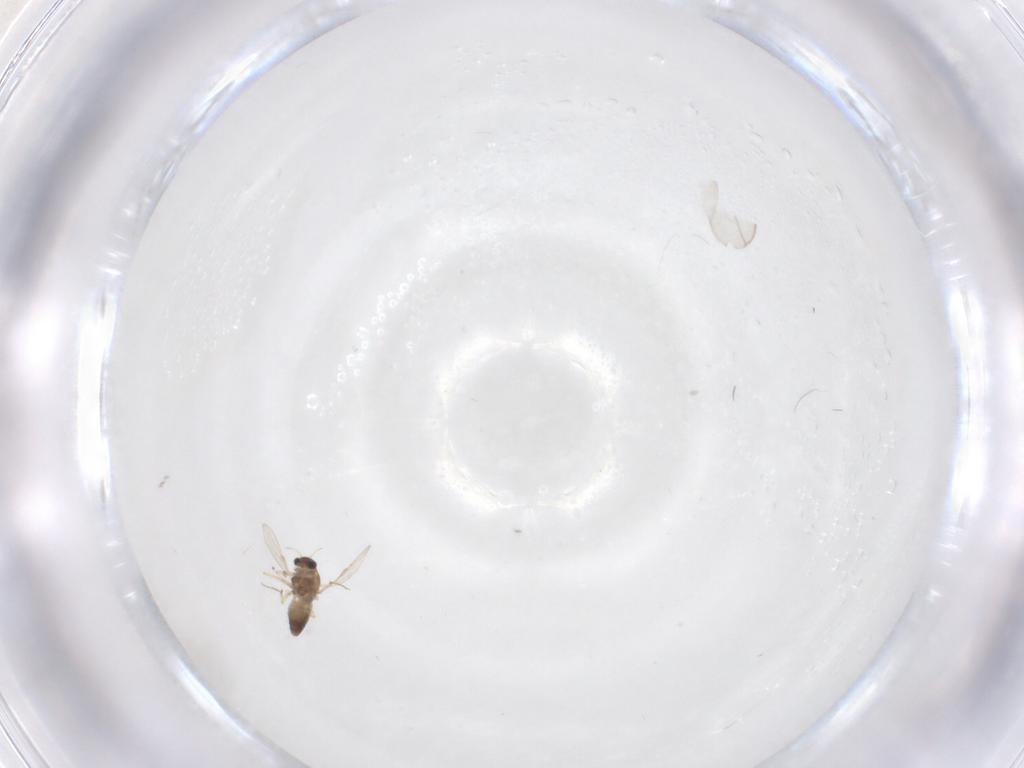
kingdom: Animalia
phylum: Arthropoda
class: Insecta
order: Diptera
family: Chironomidae
